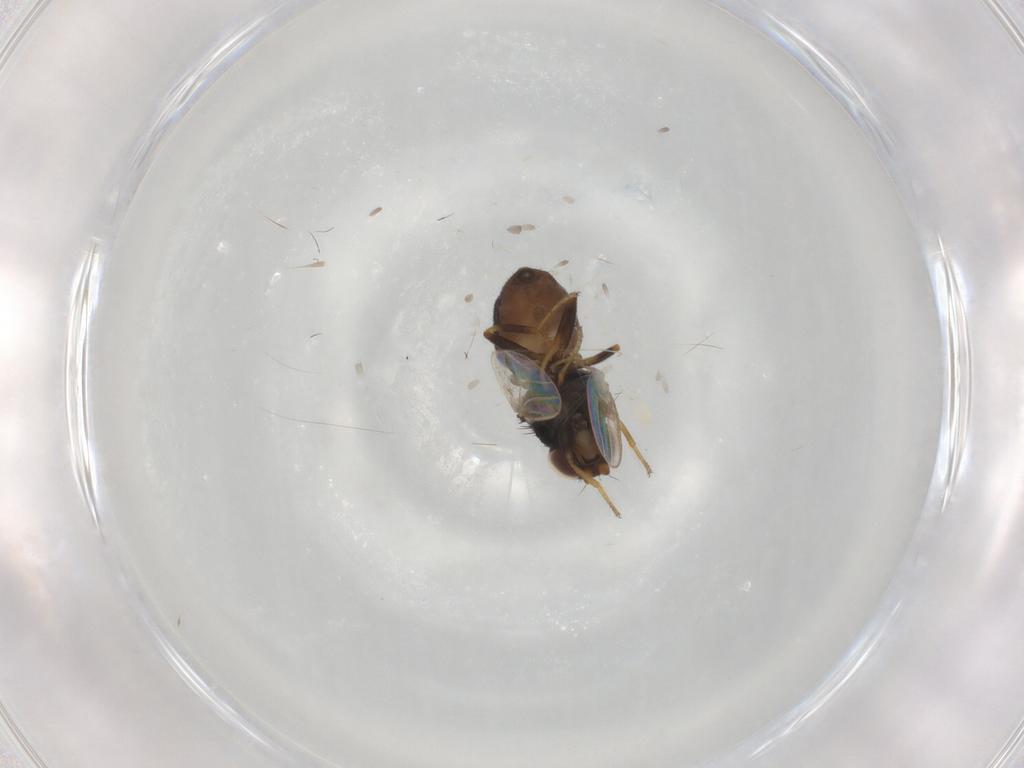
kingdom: Animalia
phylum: Arthropoda
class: Insecta
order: Diptera
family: Chloropidae
